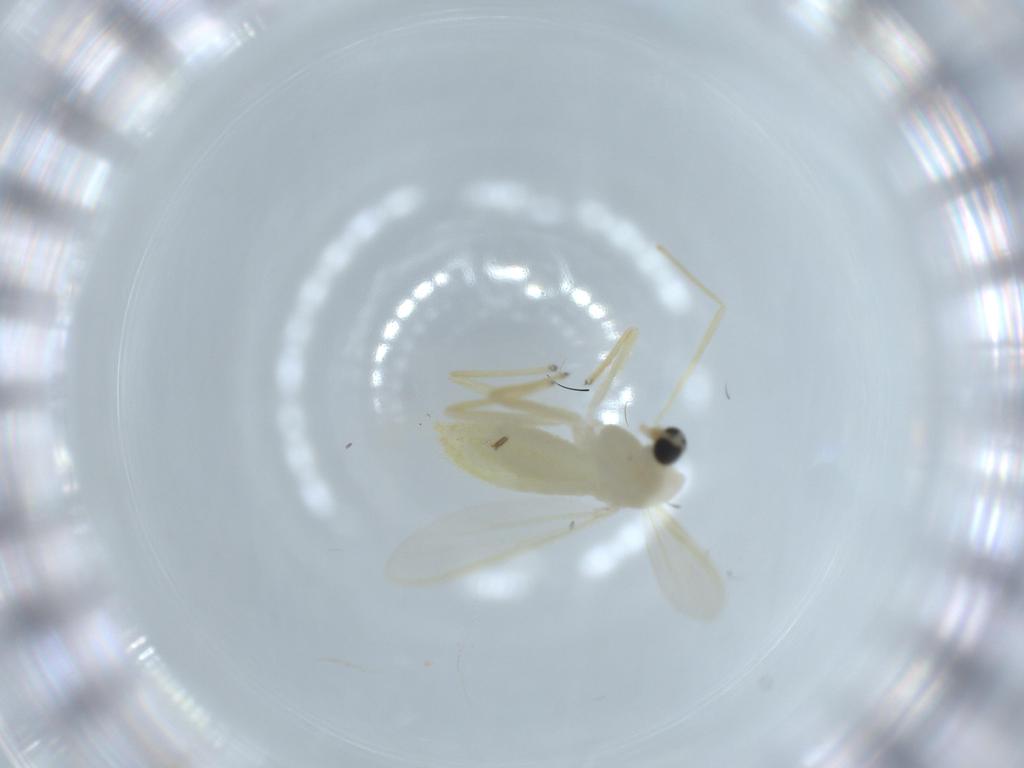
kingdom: Animalia
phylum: Arthropoda
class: Insecta
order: Diptera
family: Chironomidae
